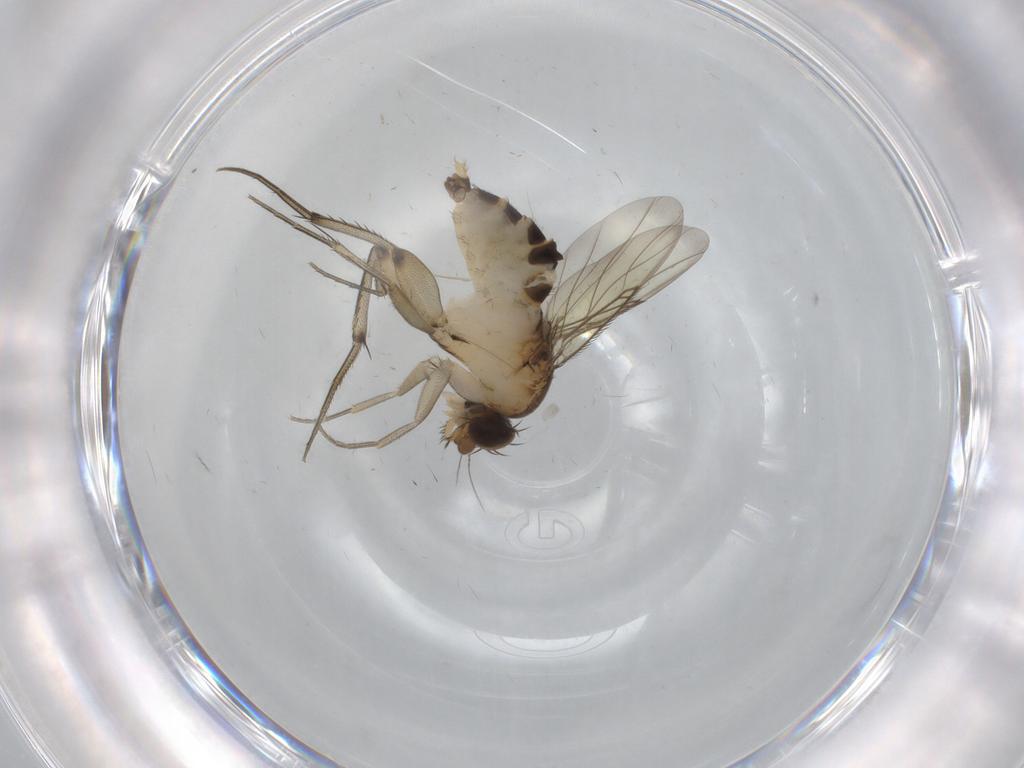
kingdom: Animalia
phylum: Arthropoda
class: Insecta
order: Diptera
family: Phoridae
